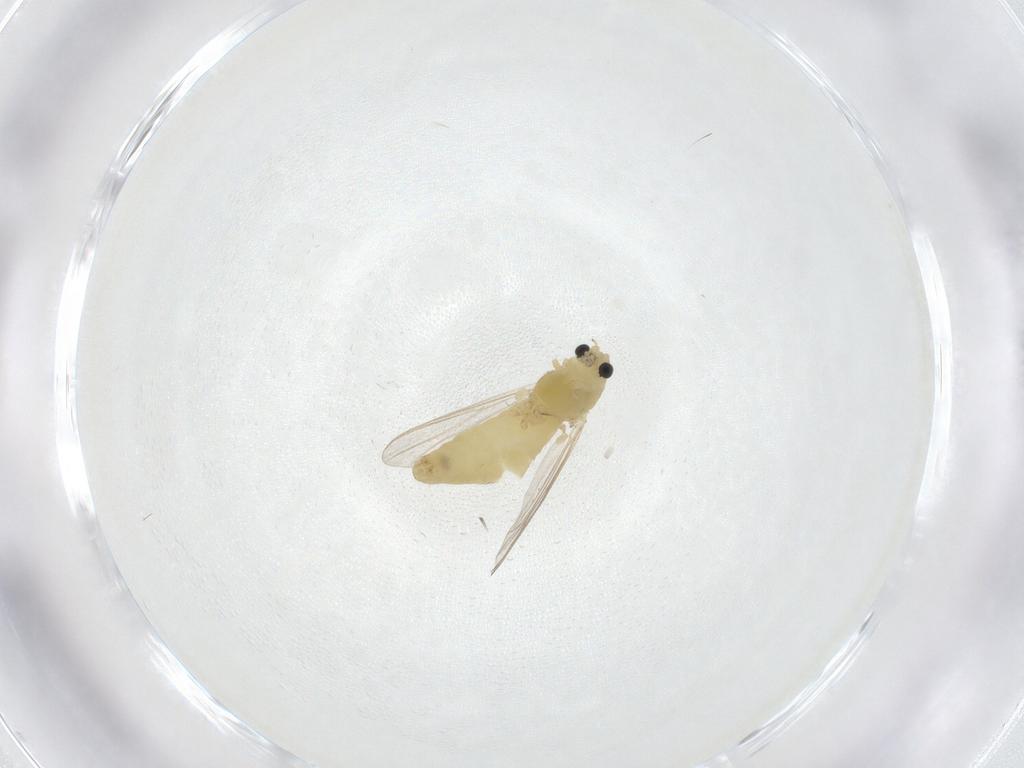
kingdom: Animalia
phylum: Arthropoda
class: Insecta
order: Diptera
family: Chironomidae
